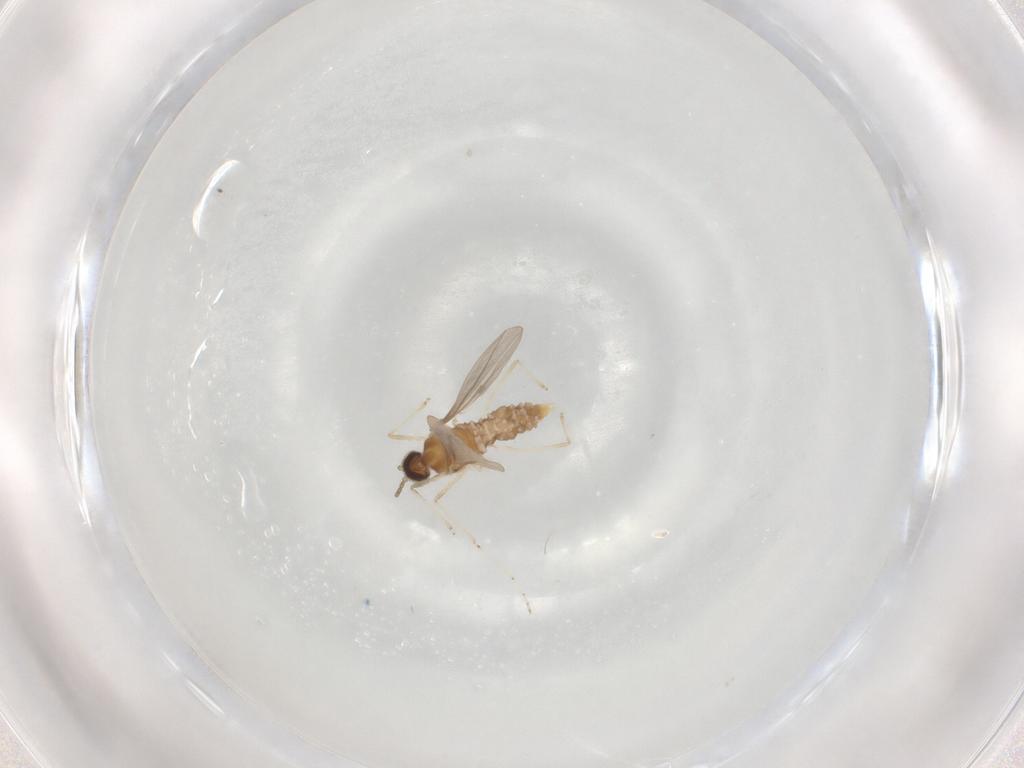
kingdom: Animalia
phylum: Arthropoda
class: Insecta
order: Diptera
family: Cecidomyiidae
